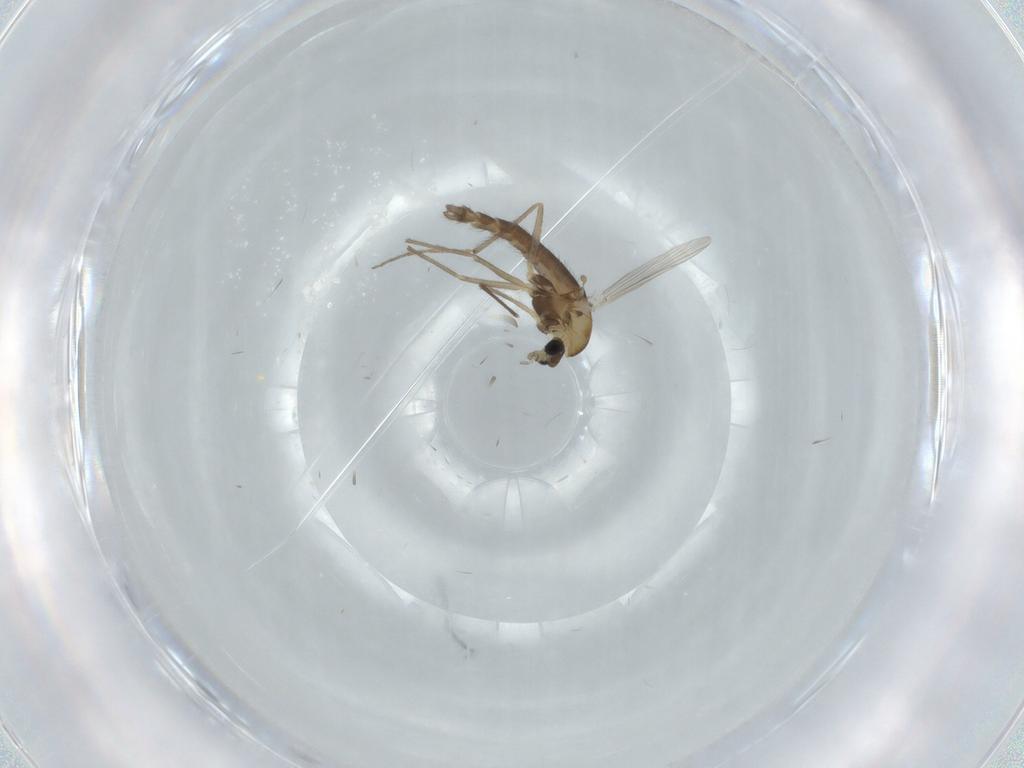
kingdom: Animalia
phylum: Arthropoda
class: Insecta
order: Diptera
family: Chironomidae
